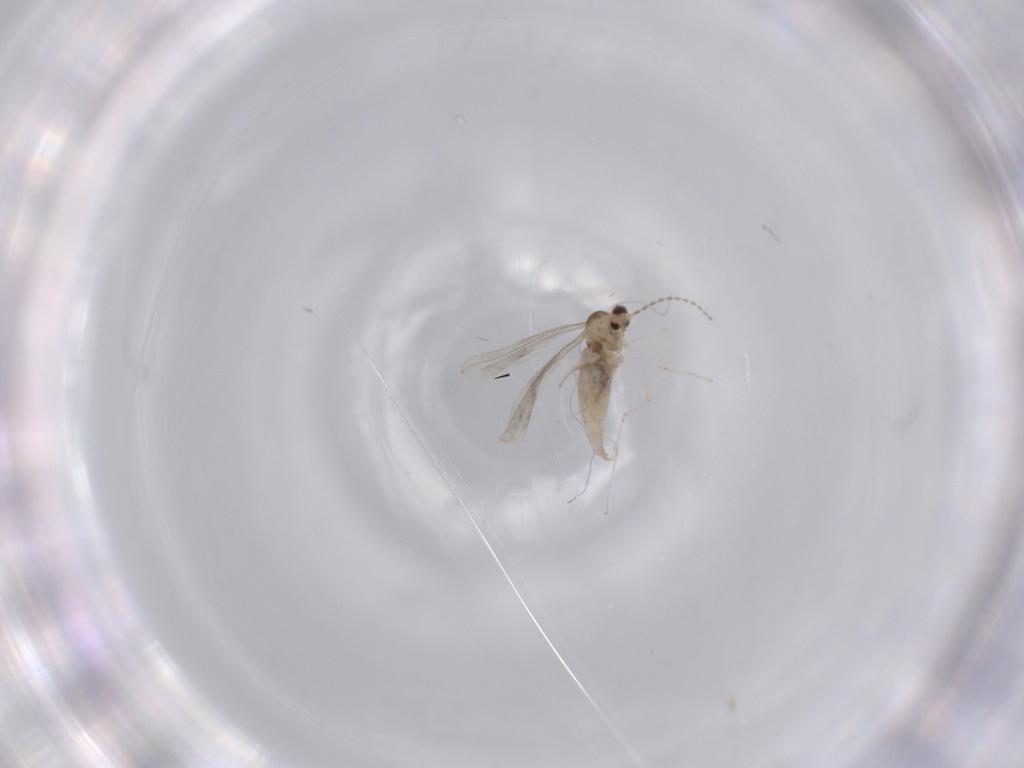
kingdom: Animalia
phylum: Arthropoda
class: Insecta
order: Diptera
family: Cecidomyiidae
